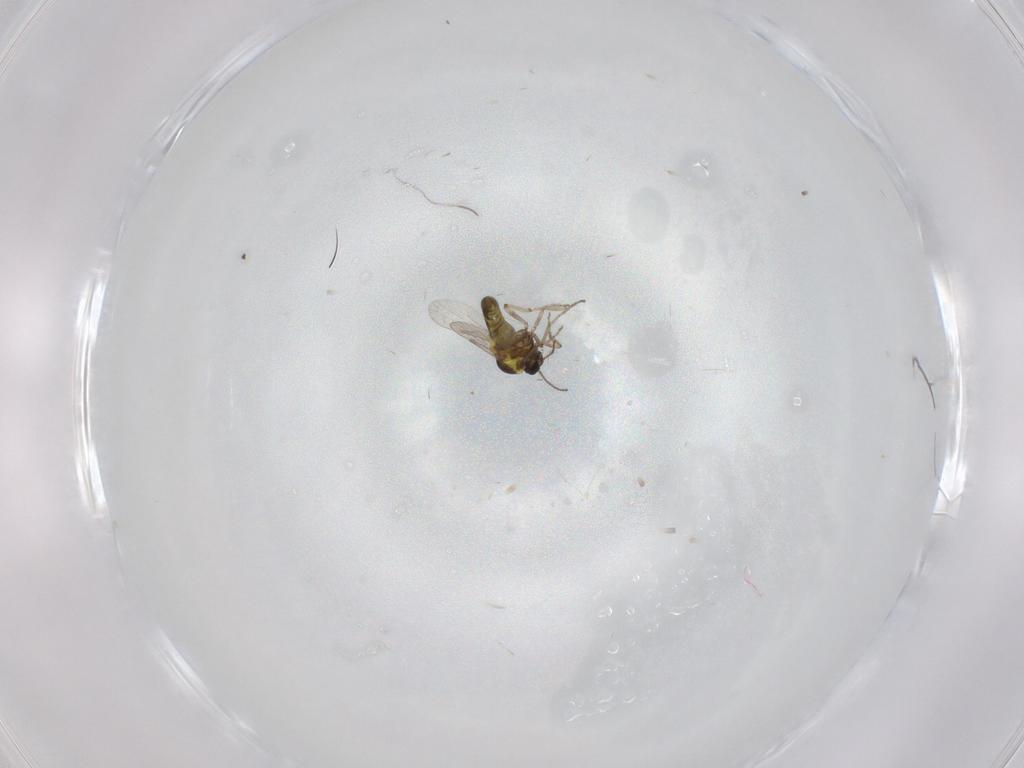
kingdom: Animalia
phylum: Arthropoda
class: Insecta
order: Diptera
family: Ceratopogonidae
